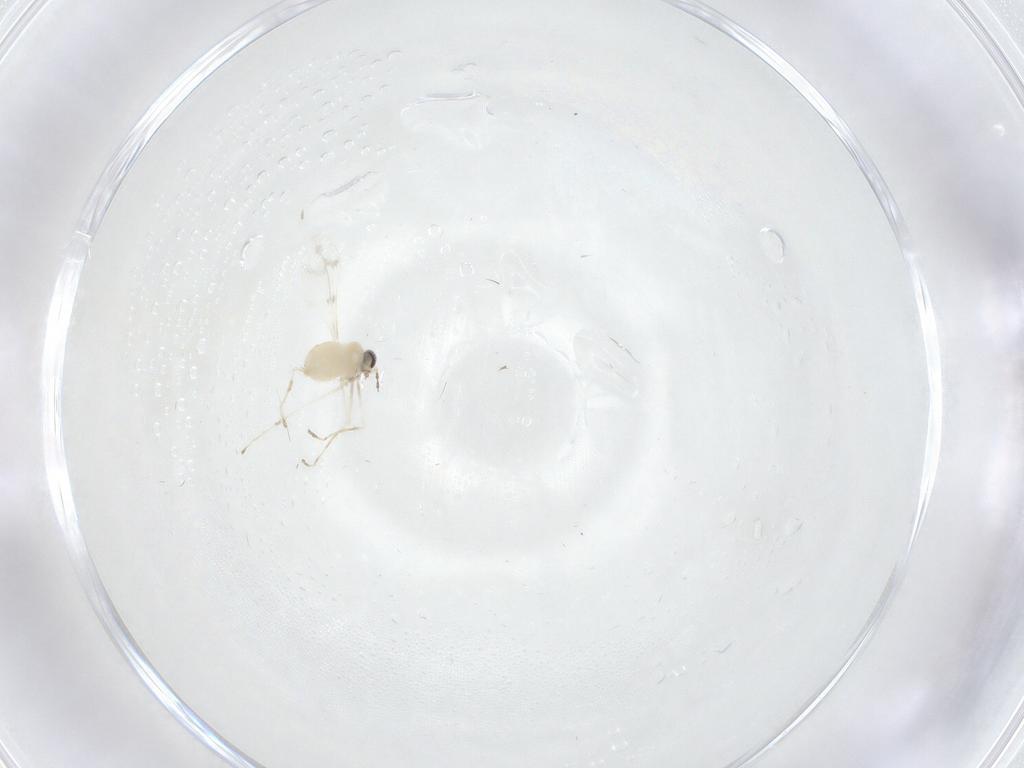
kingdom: Animalia
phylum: Arthropoda
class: Insecta
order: Diptera
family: Cecidomyiidae
